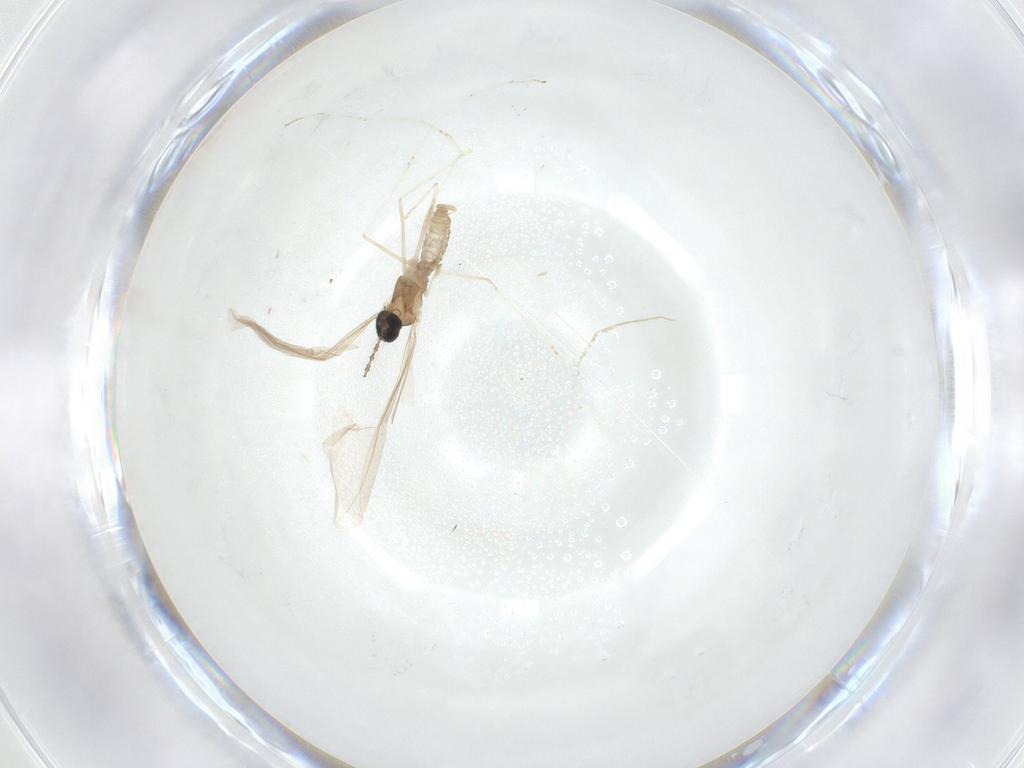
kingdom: Animalia
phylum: Arthropoda
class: Insecta
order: Diptera
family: Cecidomyiidae
